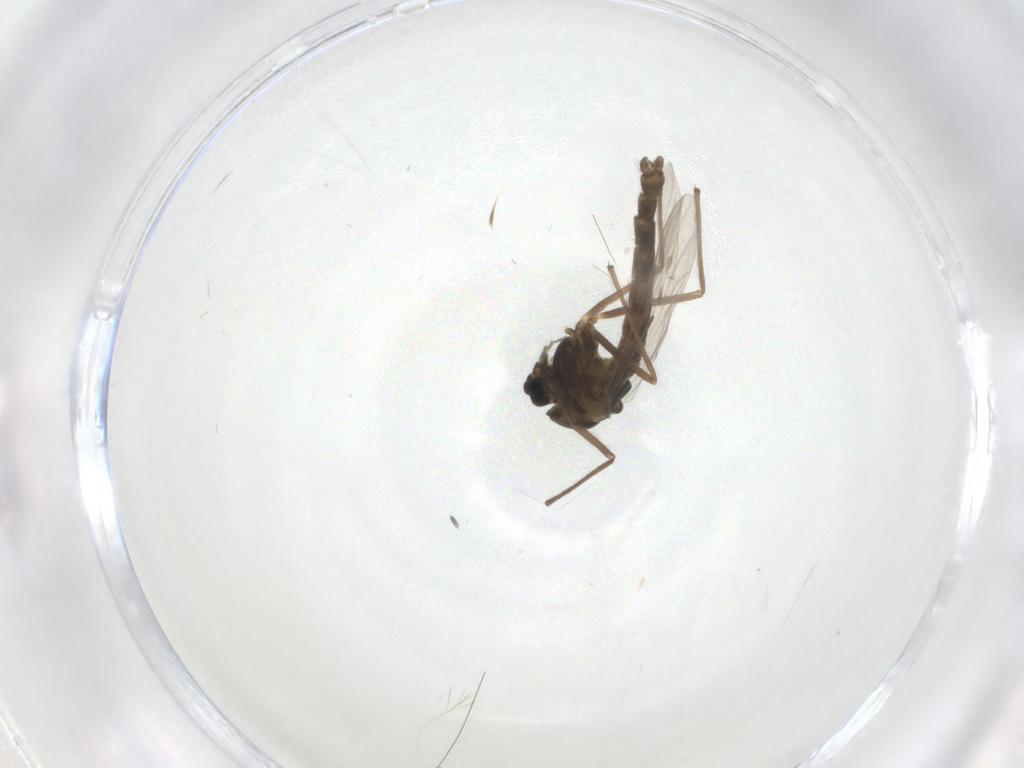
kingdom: Animalia
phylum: Arthropoda
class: Insecta
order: Diptera
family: Chironomidae
